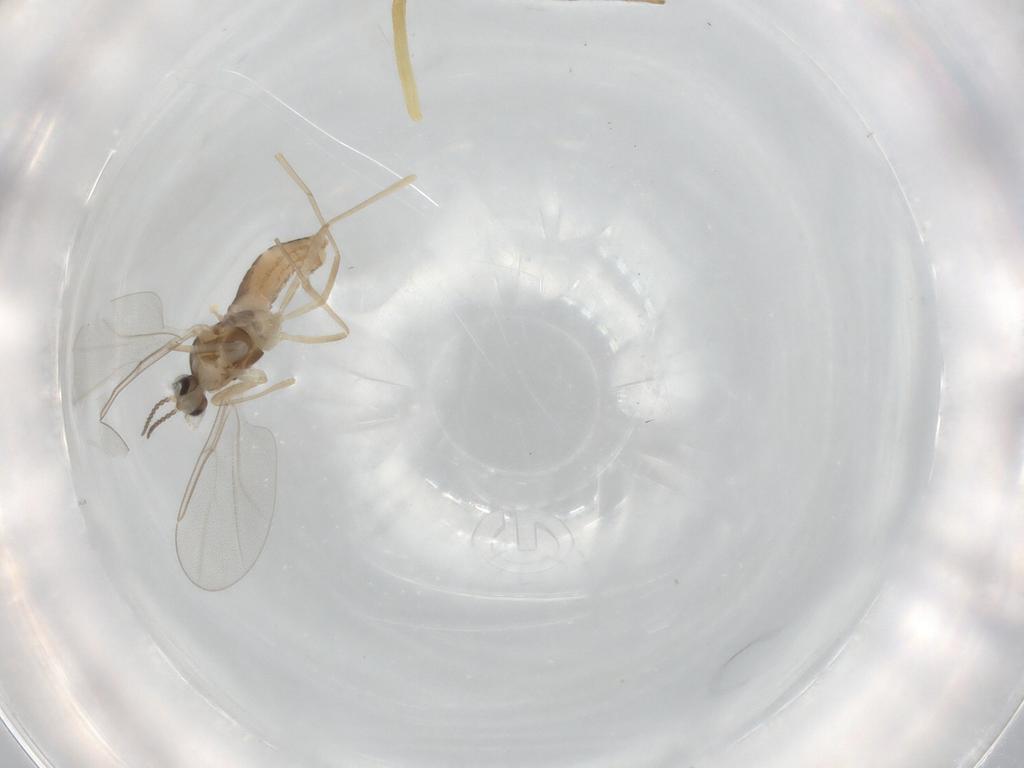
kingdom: Animalia
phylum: Arthropoda
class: Insecta
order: Diptera
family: Cecidomyiidae
